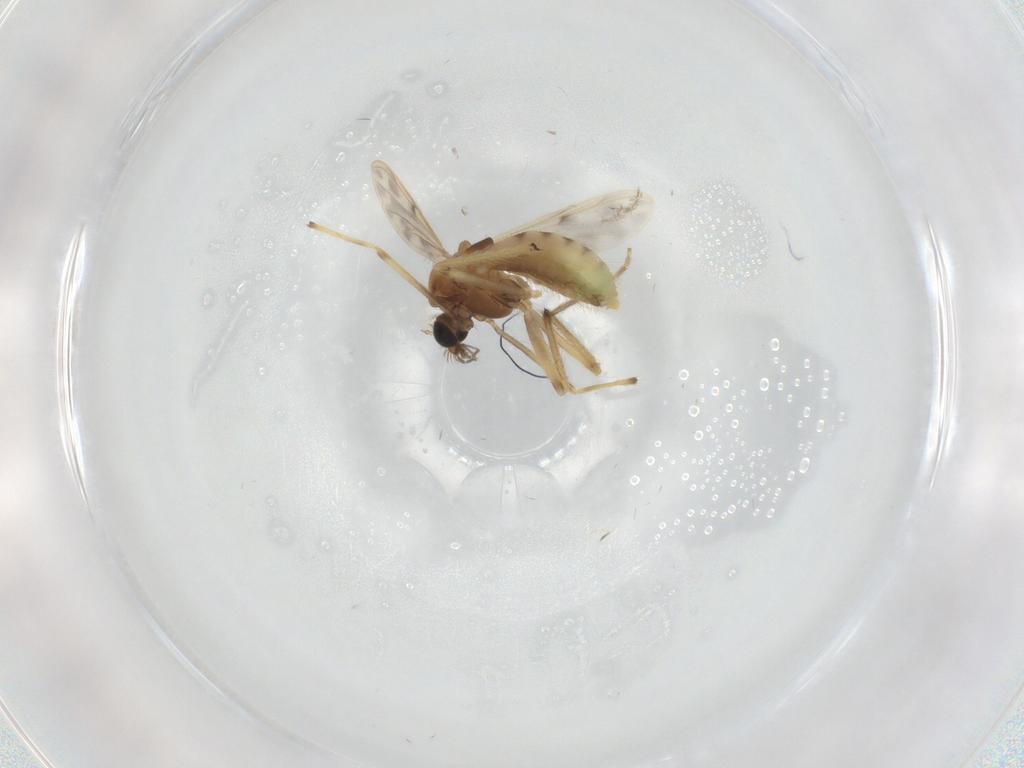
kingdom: Animalia
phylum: Arthropoda
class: Insecta
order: Diptera
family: Chironomidae
